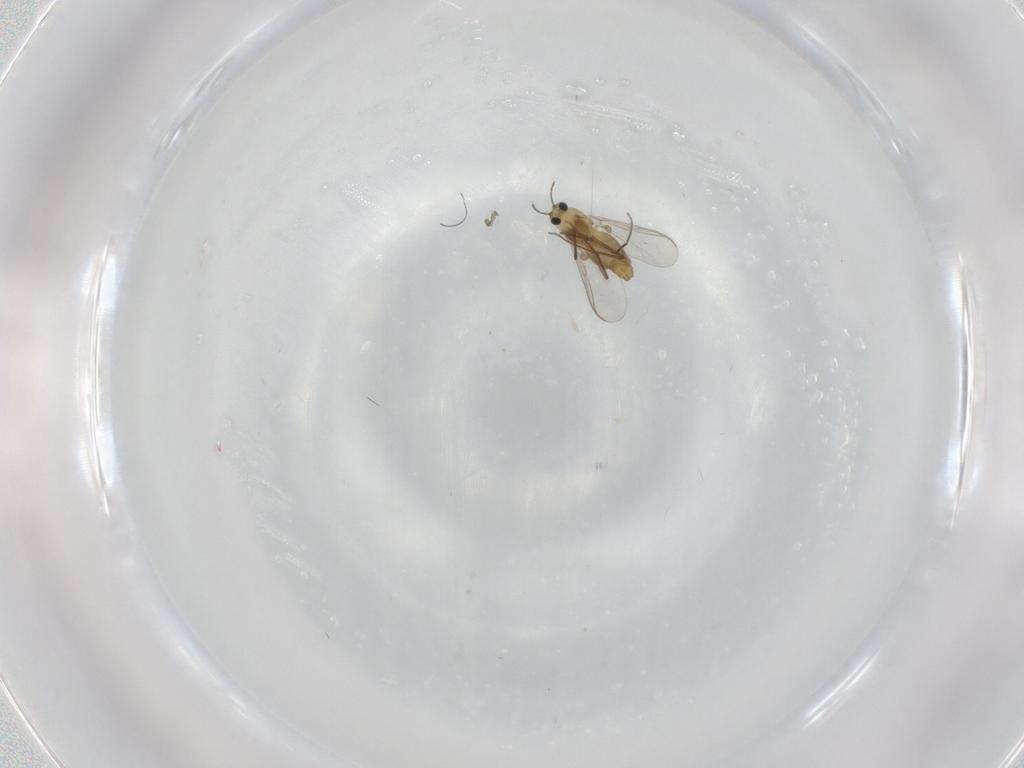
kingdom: Animalia
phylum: Arthropoda
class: Insecta
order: Diptera
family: Chironomidae
